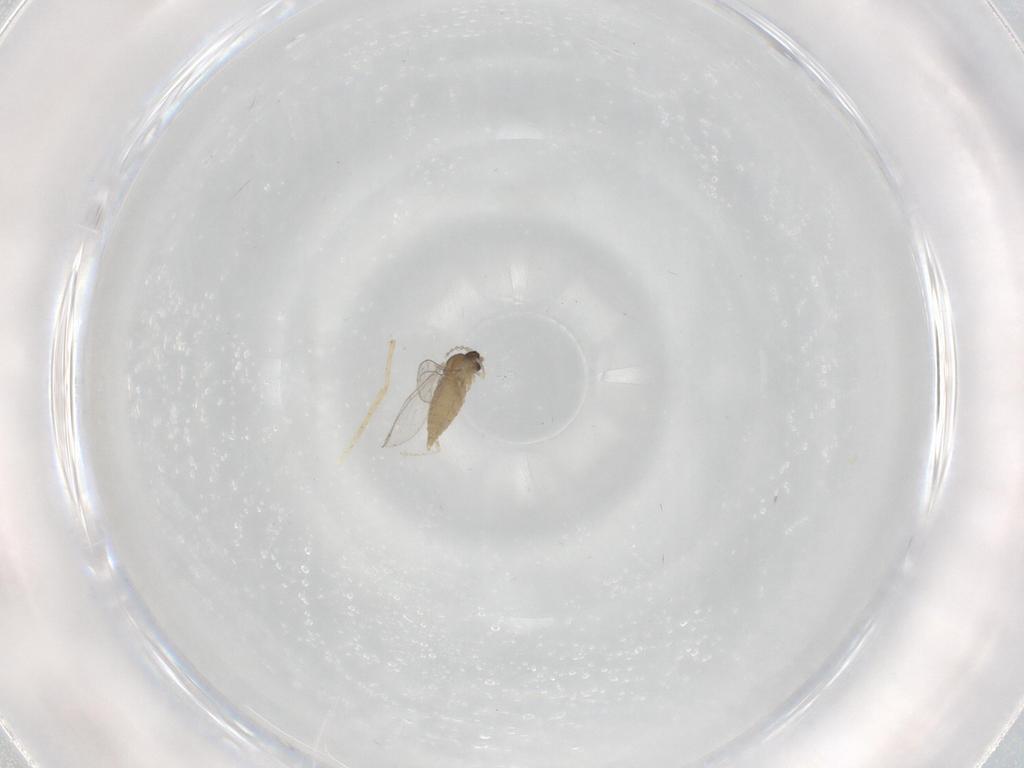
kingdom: Animalia
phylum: Arthropoda
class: Insecta
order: Diptera
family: Chironomidae
